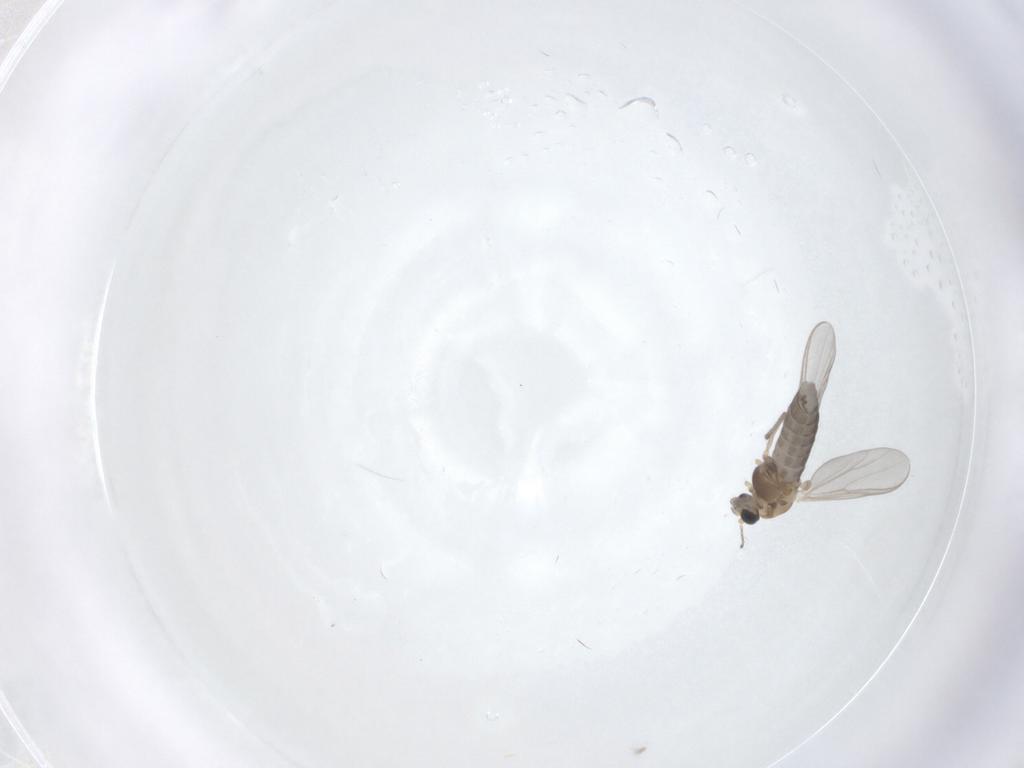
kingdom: Animalia
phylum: Arthropoda
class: Insecta
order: Diptera
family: Chironomidae
